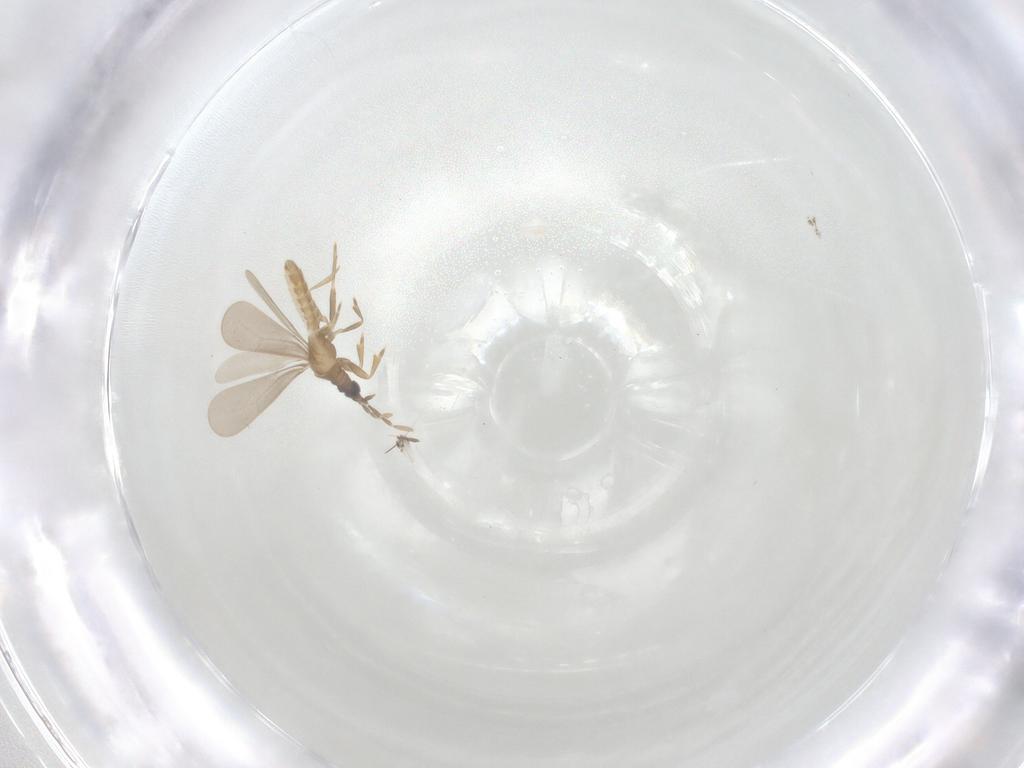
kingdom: Animalia
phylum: Arthropoda
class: Insecta
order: Hemiptera
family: Enicocephalidae
